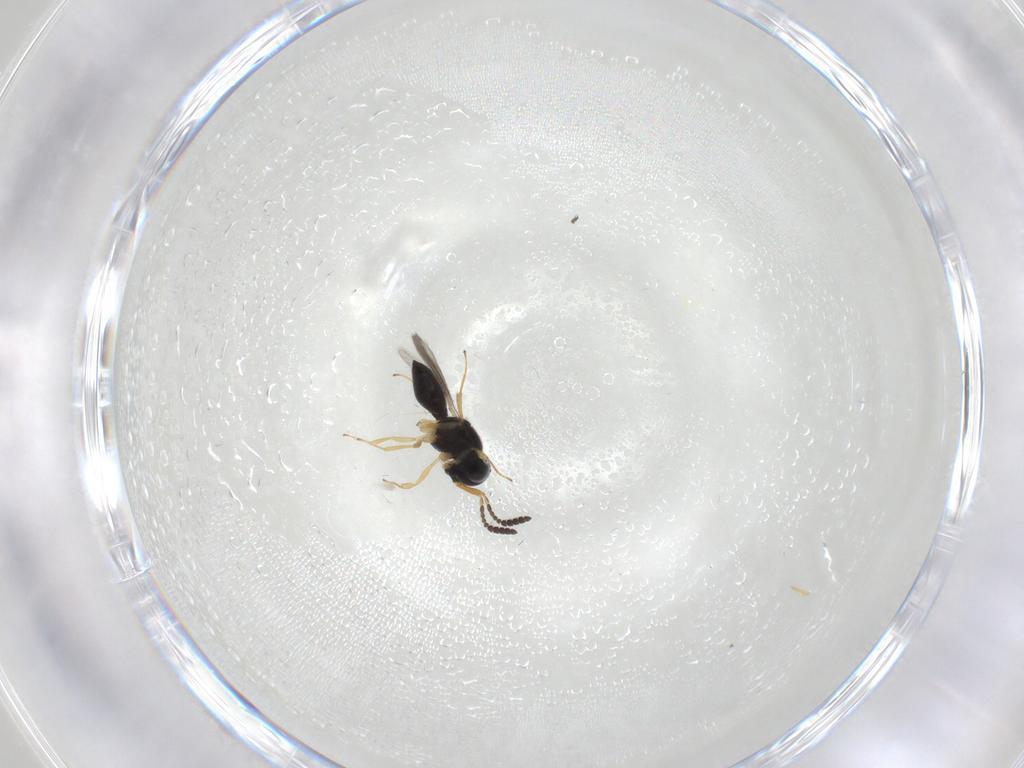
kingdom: Animalia
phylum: Arthropoda
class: Insecta
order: Hymenoptera
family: Scelionidae
